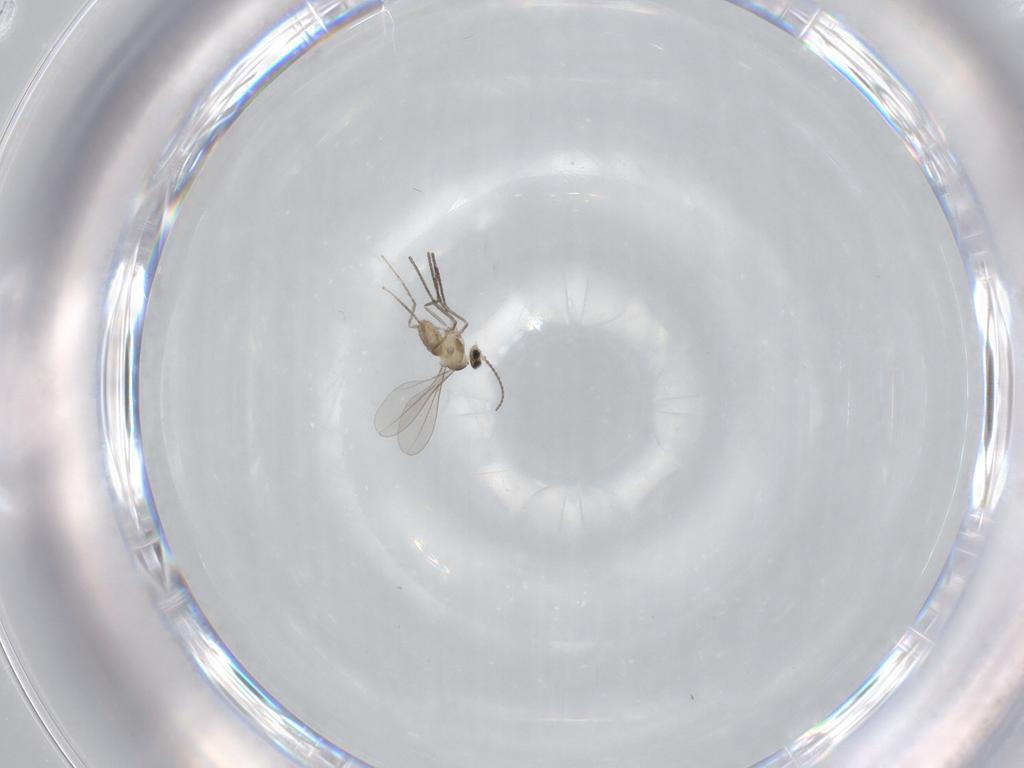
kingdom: Animalia
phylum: Arthropoda
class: Insecta
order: Diptera
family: Cecidomyiidae
